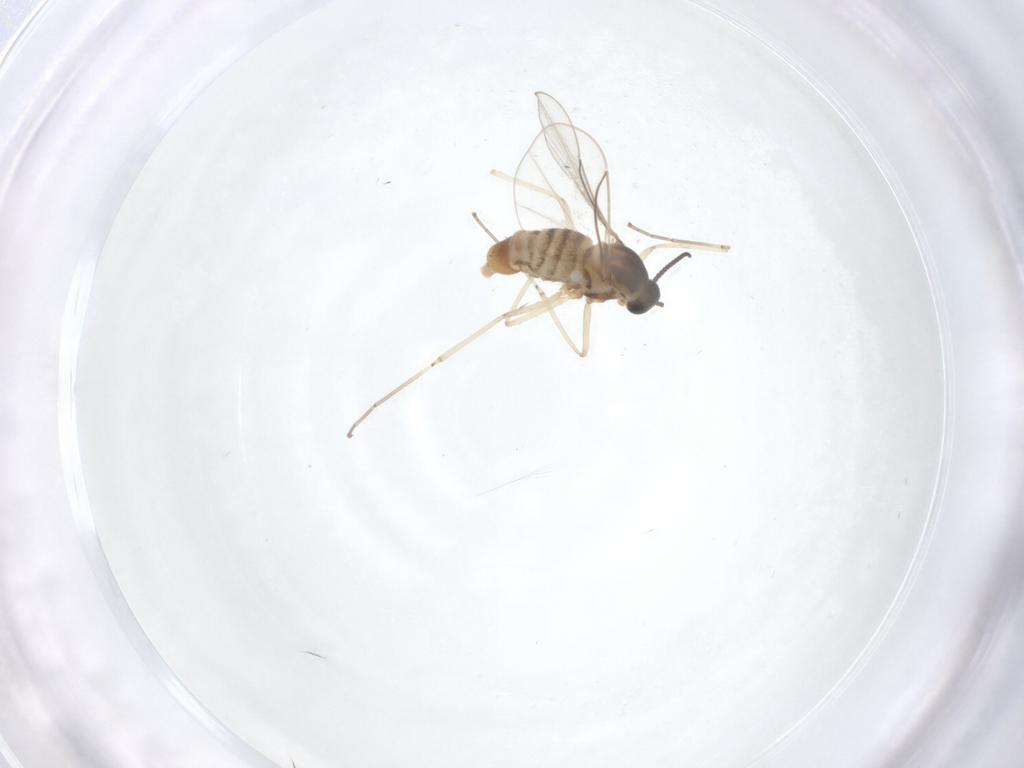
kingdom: Animalia
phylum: Arthropoda
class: Insecta
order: Diptera
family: Cecidomyiidae
